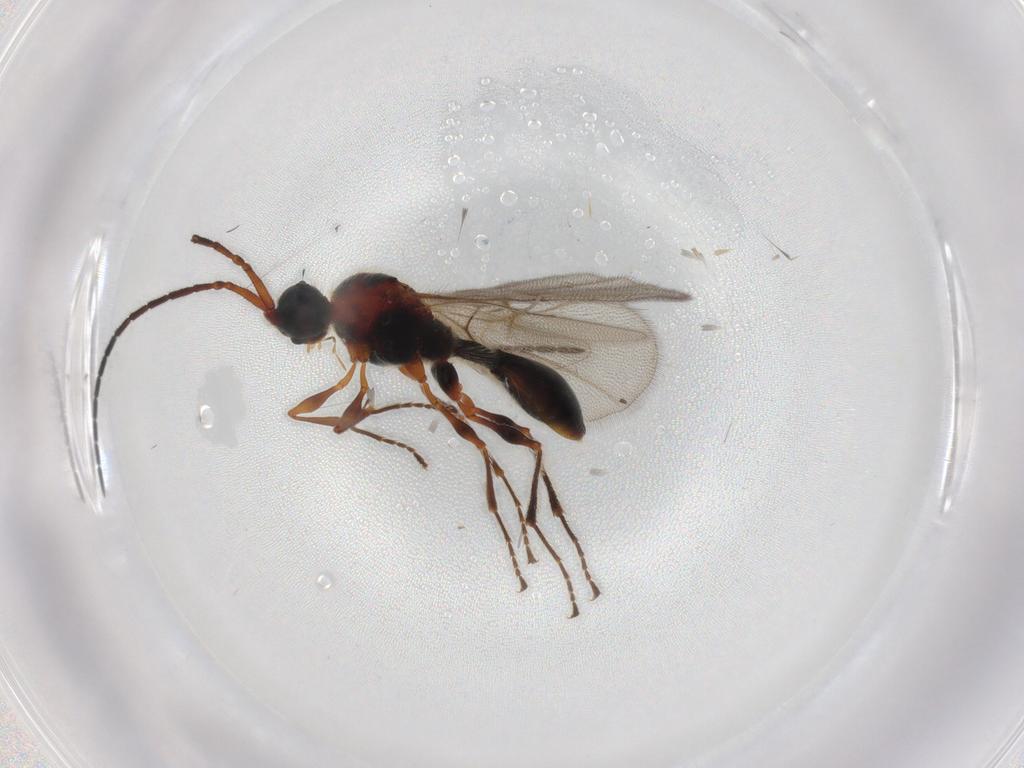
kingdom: Animalia
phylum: Arthropoda
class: Insecta
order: Hymenoptera
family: Diapriidae
